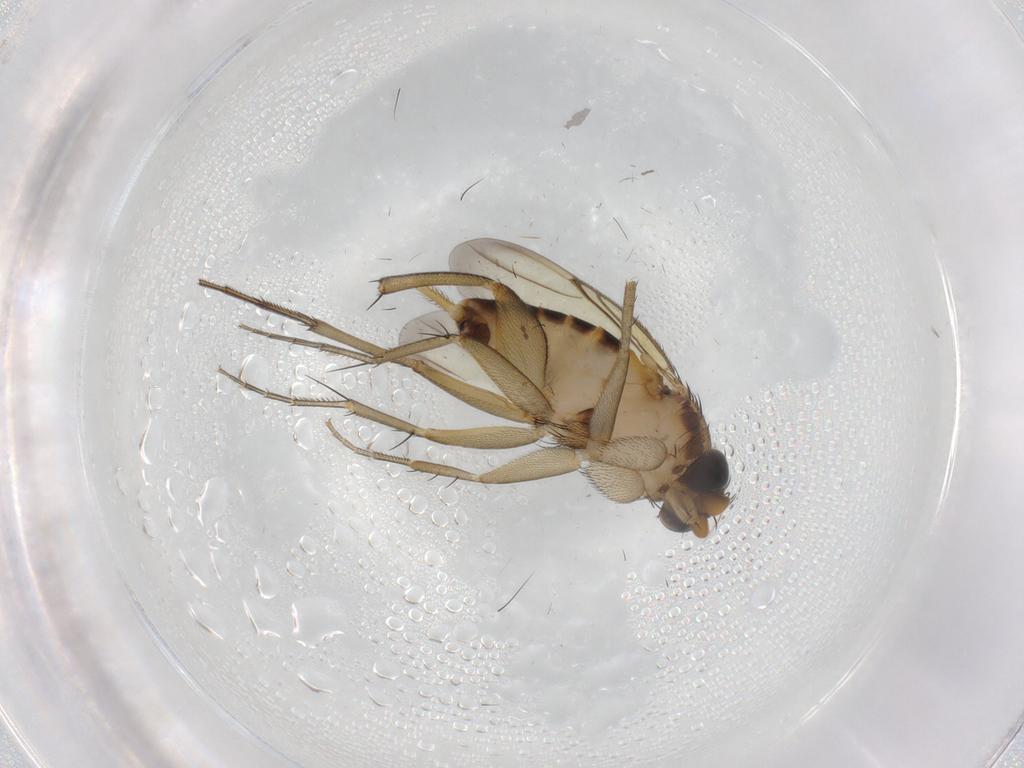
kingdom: Animalia
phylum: Arthropoda
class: Insecta
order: Diptera
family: Phoridae
